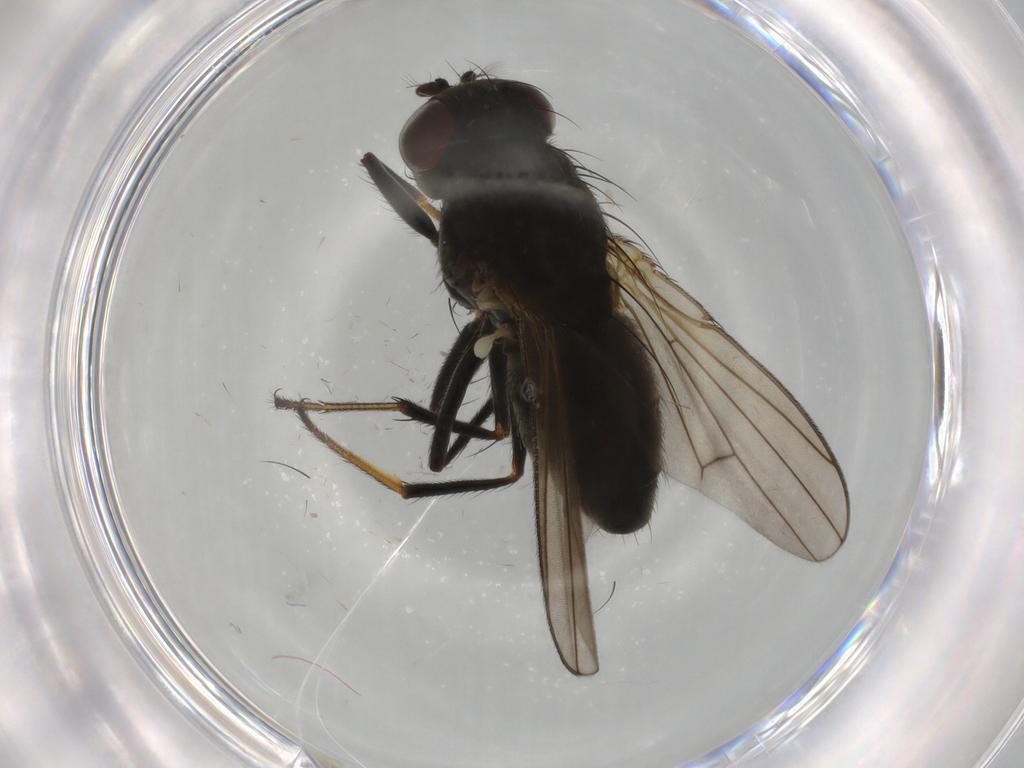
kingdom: Animalia
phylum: Arthropoda
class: Insecta
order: Diptera
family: Ephydridae
